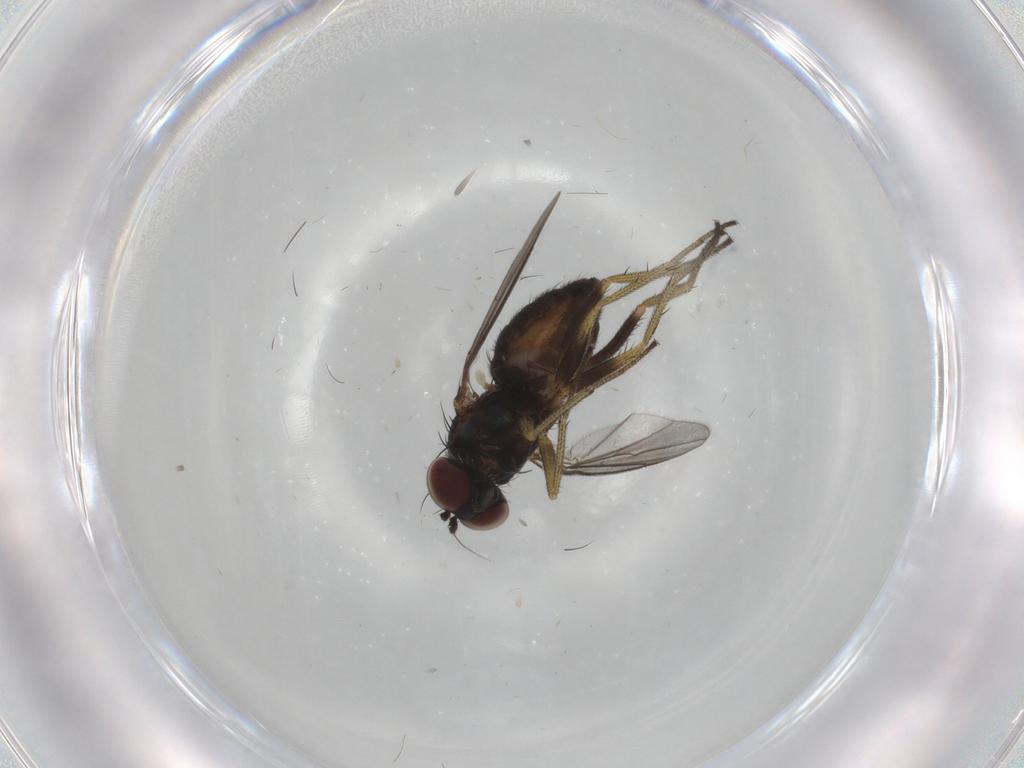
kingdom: Animalia
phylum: Arthropoda
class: Insecta
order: Diptera
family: Dolichopodidae
